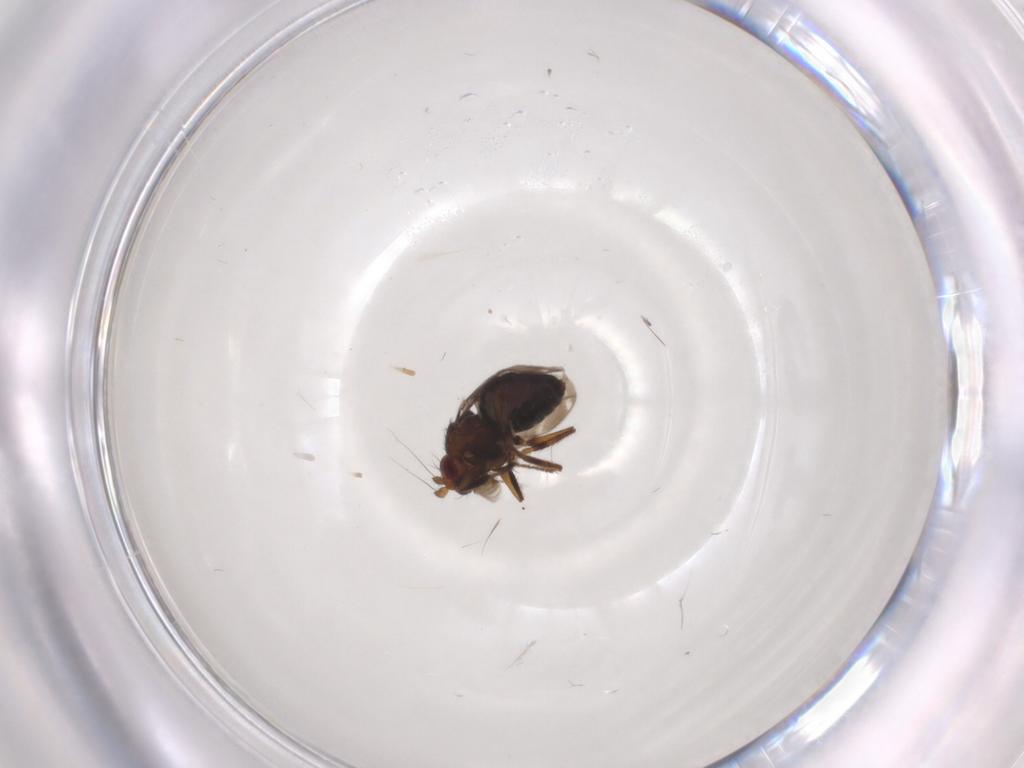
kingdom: Animalia
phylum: Arthropoda
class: Insecta
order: Diptera
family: Sphaeroceridae
